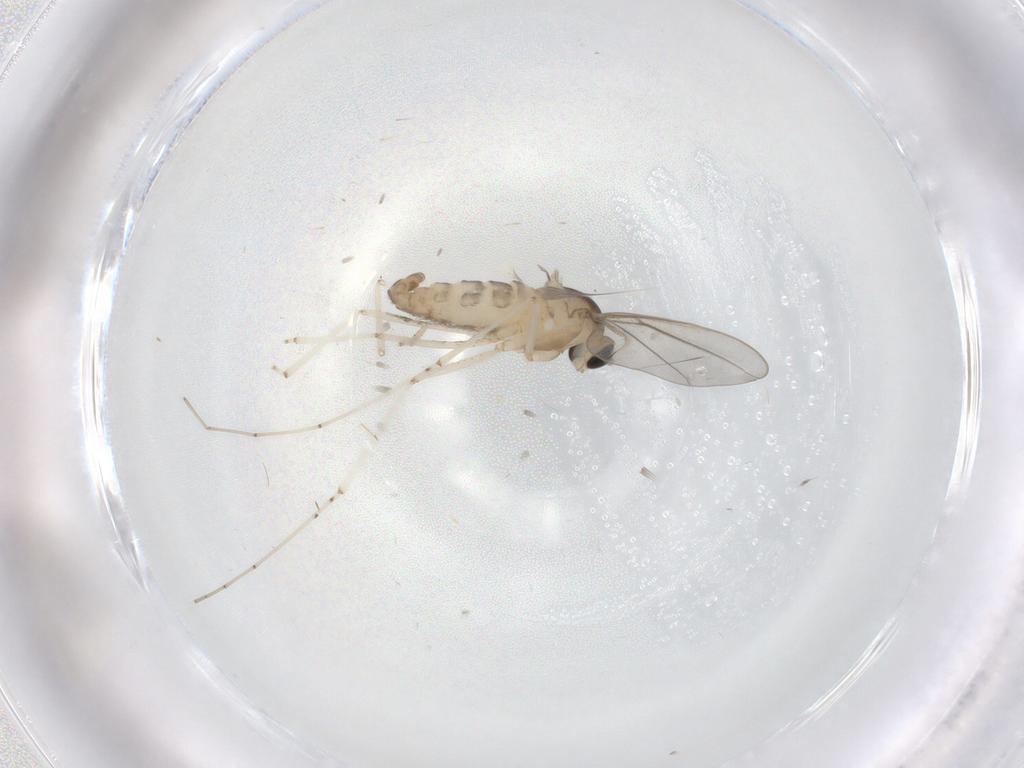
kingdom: Animalia
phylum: Arthropoda
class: Insecta
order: Diptera
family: Cecidomyiidae
